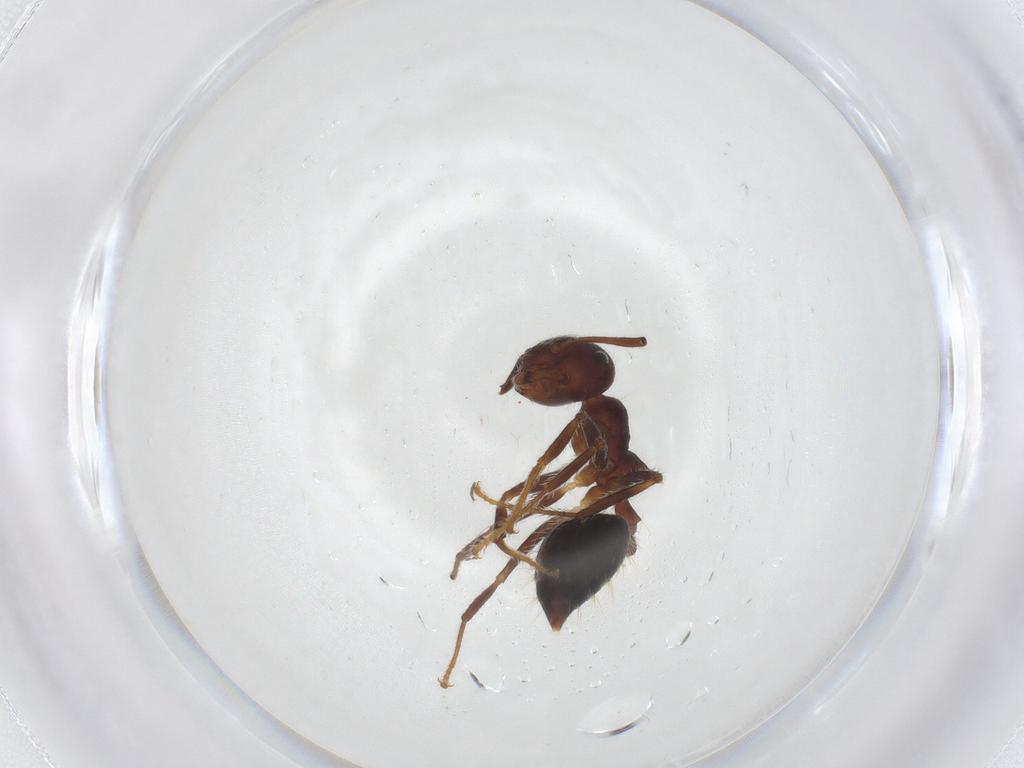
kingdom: Animalia
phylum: Arthropoda
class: Insecta
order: Hymenoptera
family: Formicidae
